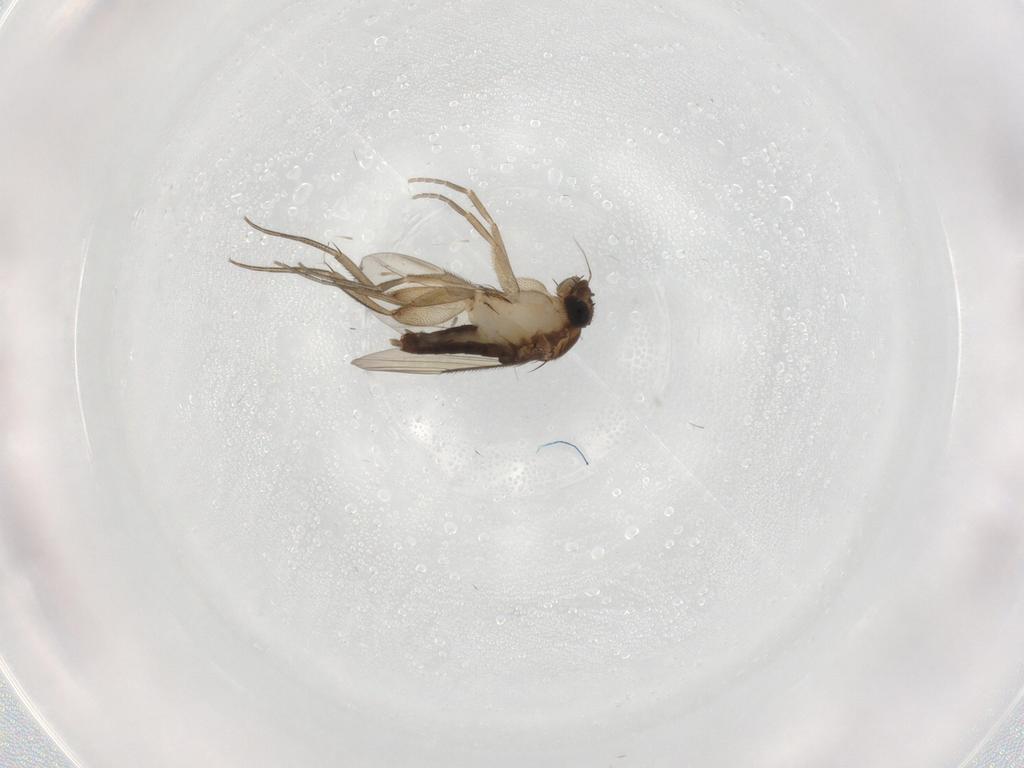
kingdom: Animalia
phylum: Arthropoda
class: Insecta
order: Diptera
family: Phoridae
